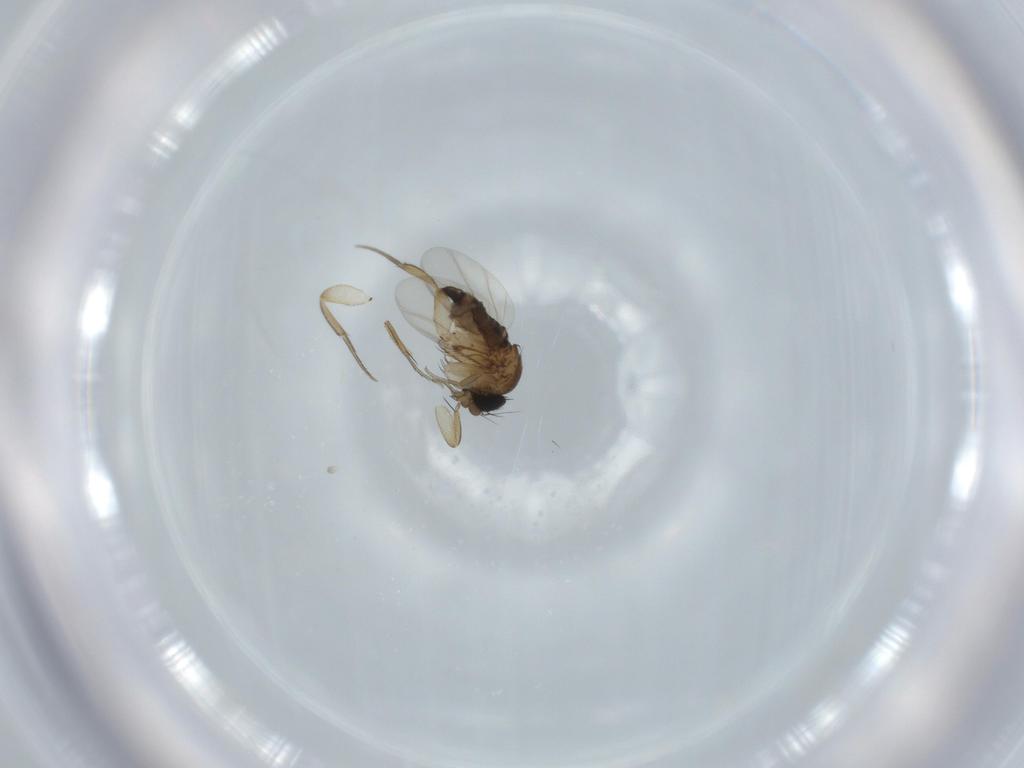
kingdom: Animalia
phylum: Arthropoda
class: Insecta
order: Diptera
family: Phoridae
